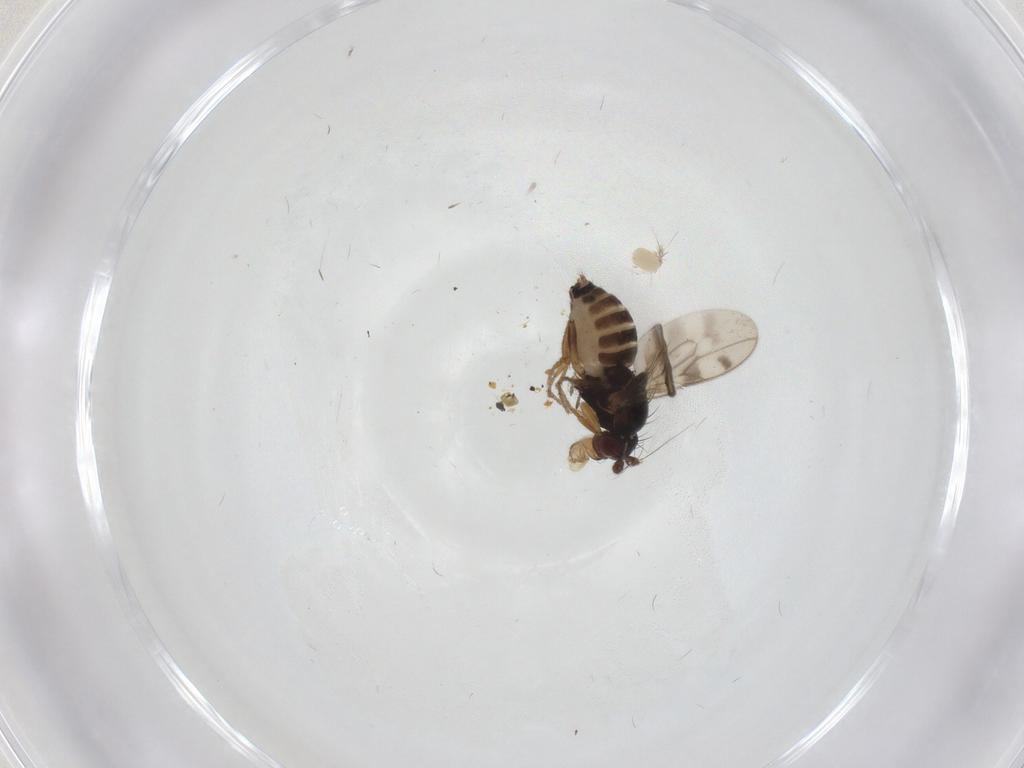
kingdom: Animalia
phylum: Arthropoda
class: Insecta
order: Diptera
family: Sphaeroceridae
